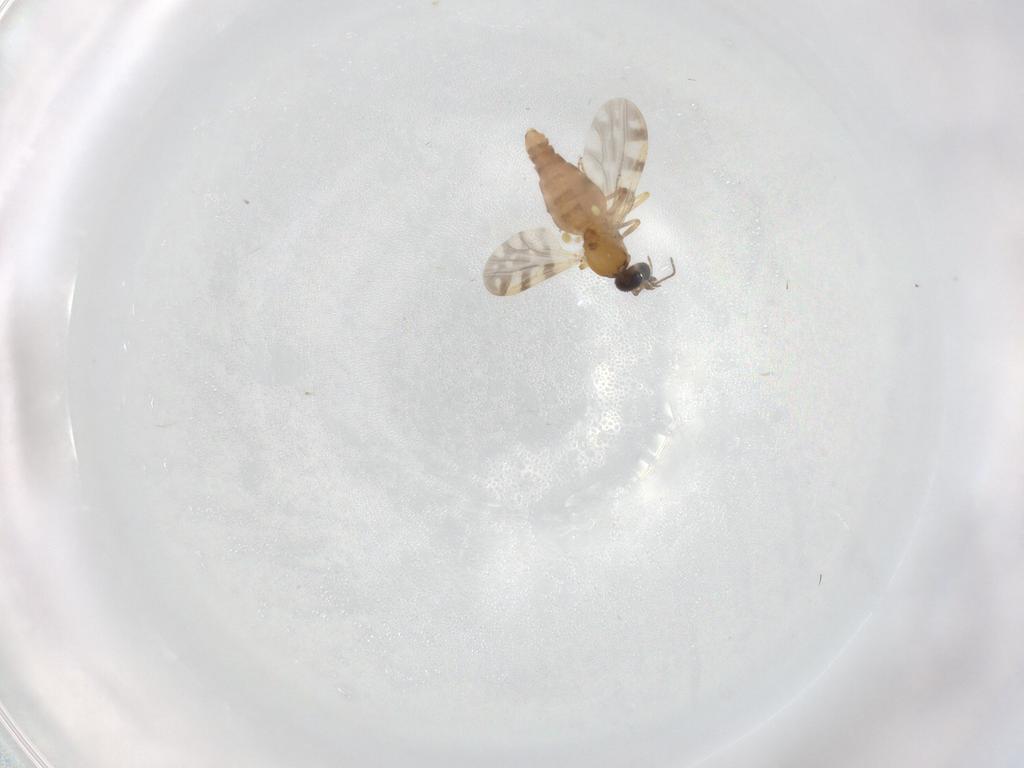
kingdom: Animalia
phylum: Arthropoda
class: Insecta
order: Diptera
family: Ceratopogonidae
